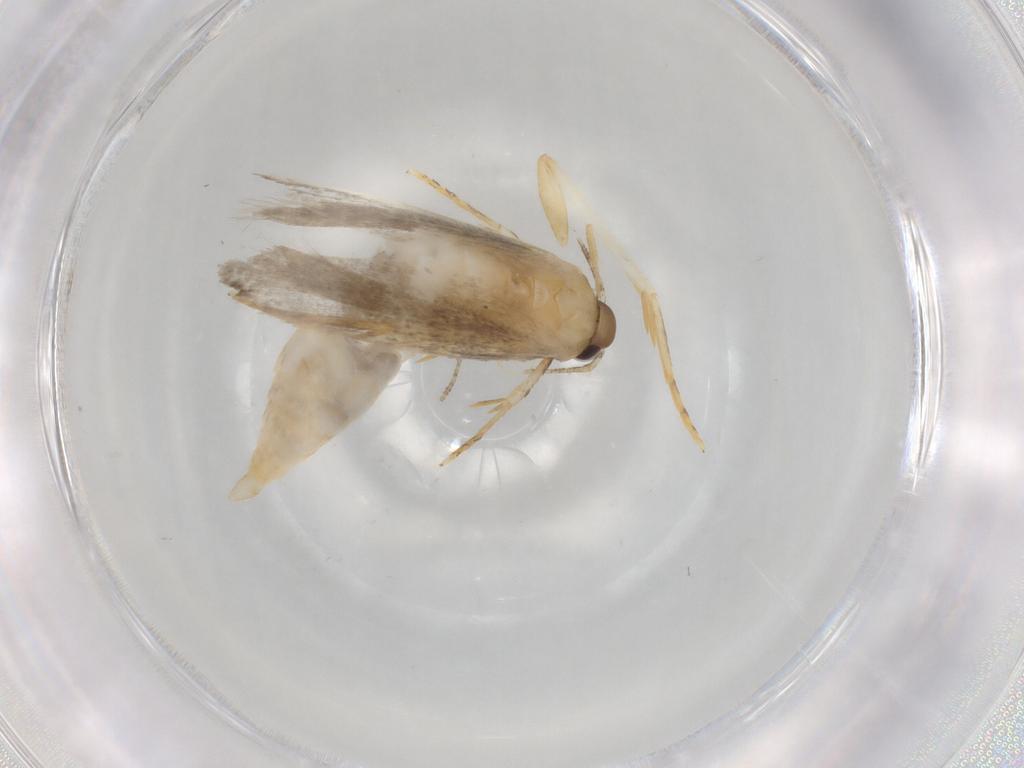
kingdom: Animalia
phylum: Arthropoda
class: Insecta
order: Lepidoptera
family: Autostichidae
